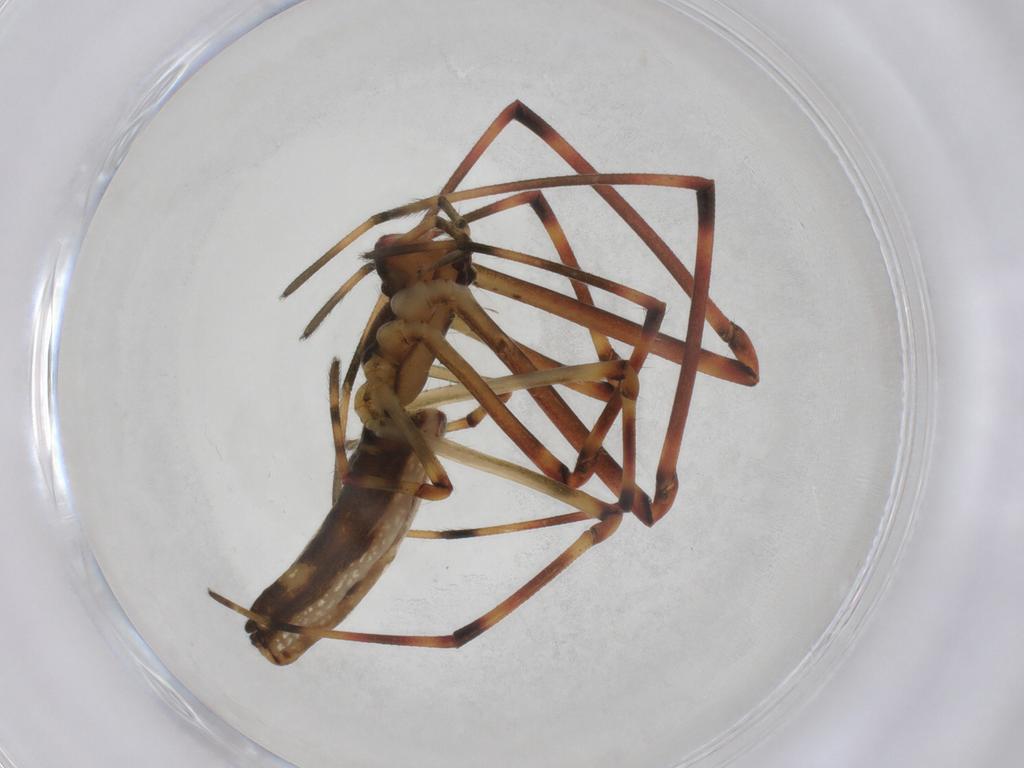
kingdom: Animalia
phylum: Arthropoda
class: Arachnida
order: Araneae
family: Tetragnathidae
